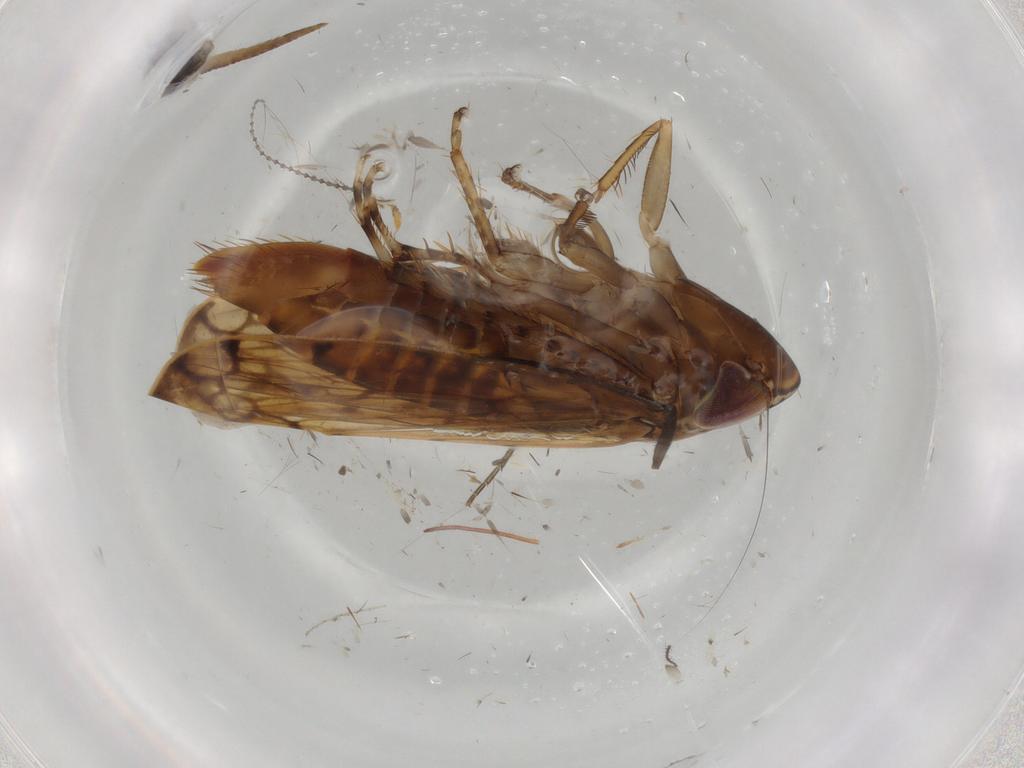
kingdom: Animalia
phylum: Arthropoda
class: Insecta
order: Hemiptera
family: Cicadellidae
